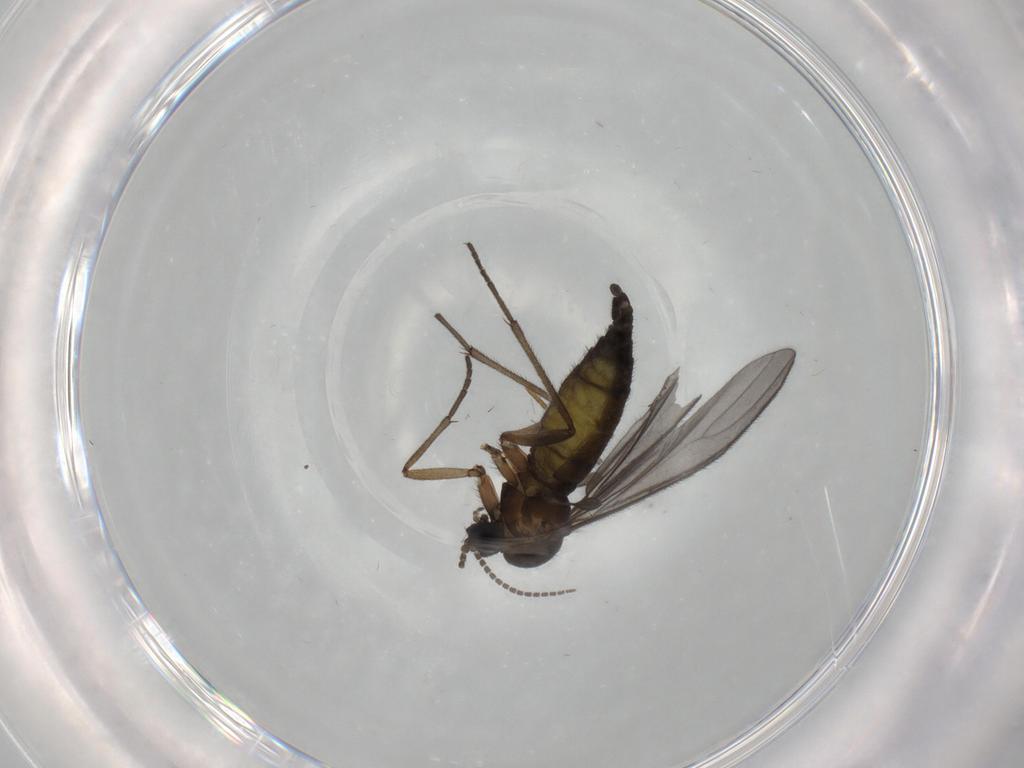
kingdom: Animalia
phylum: Arthropoda
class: Insecta
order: Diptera
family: Sciaridae
